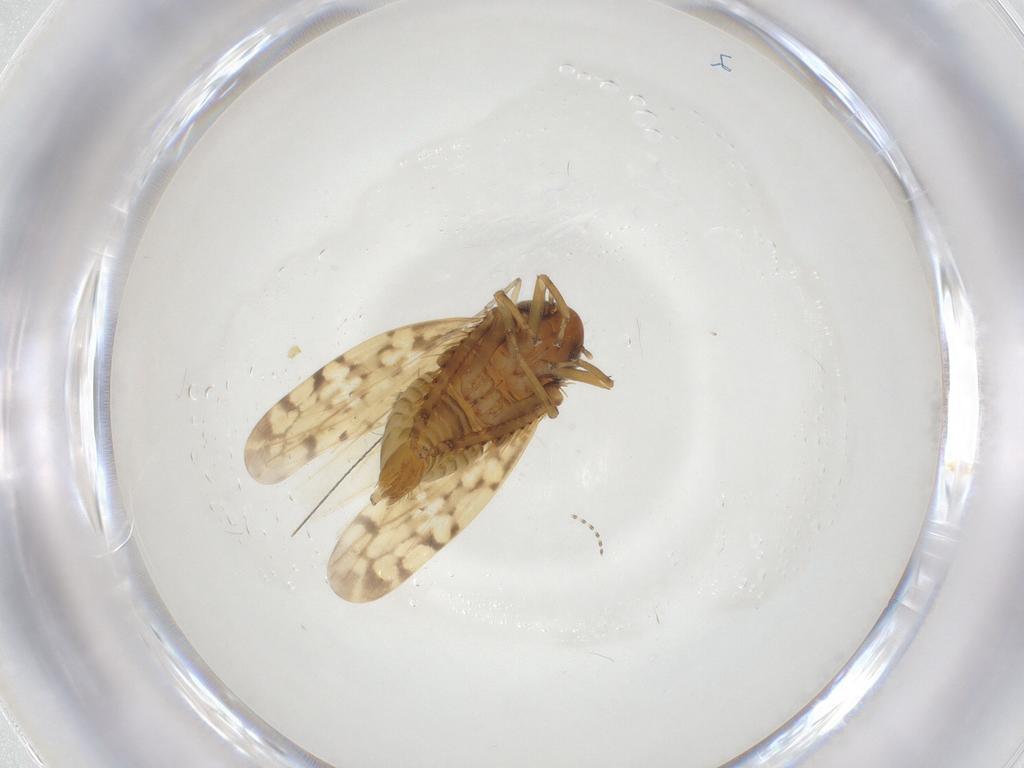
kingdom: Animalia
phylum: Arthropoda
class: Insecta
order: Hemiptera
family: Cicadellidae
